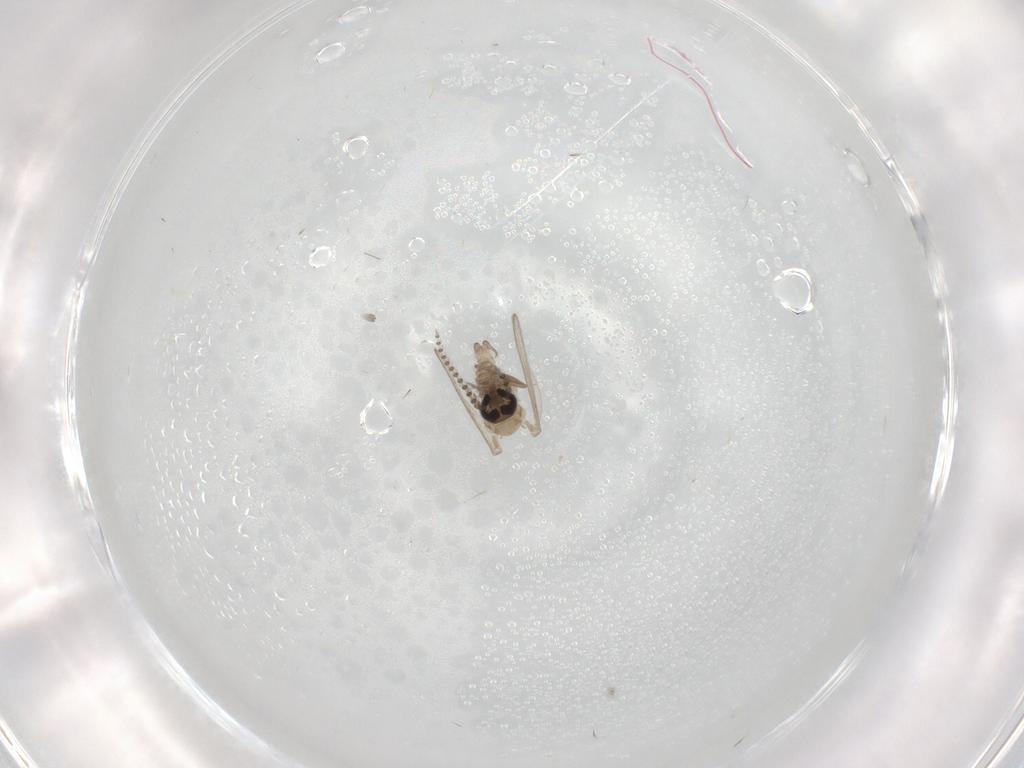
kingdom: Animalia
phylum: Arthropoda
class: Insecta
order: Diptera
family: Psychodidae
